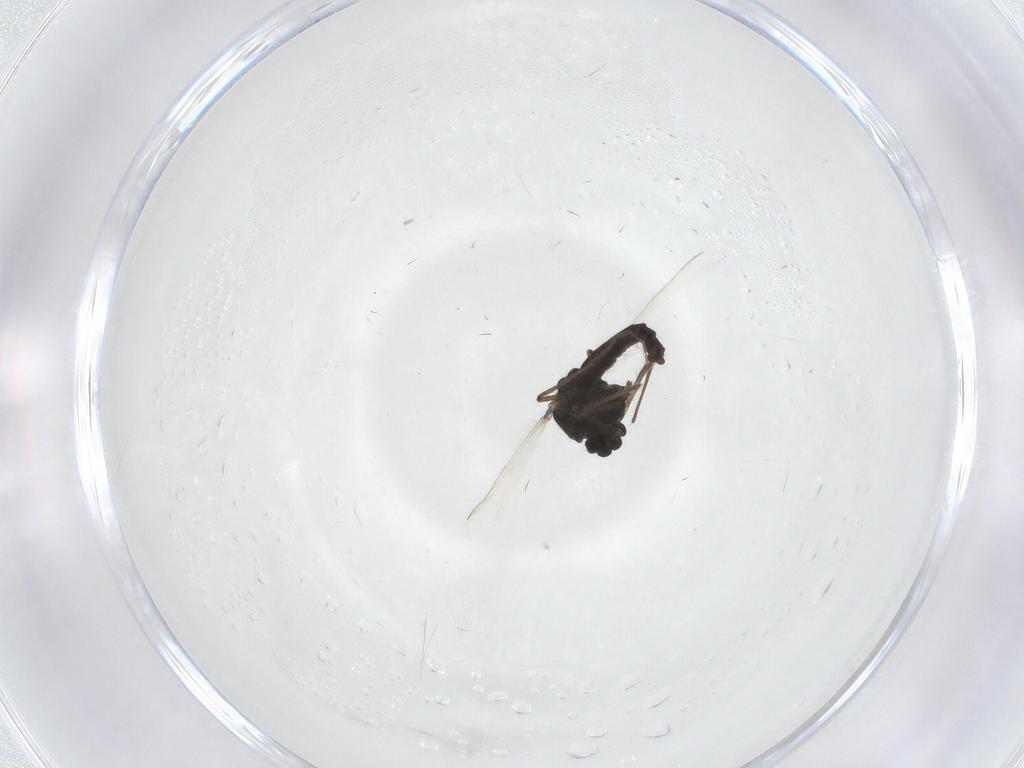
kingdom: Animalia
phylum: Arthropoda
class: Insecta
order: Diptera
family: Chironomidae
